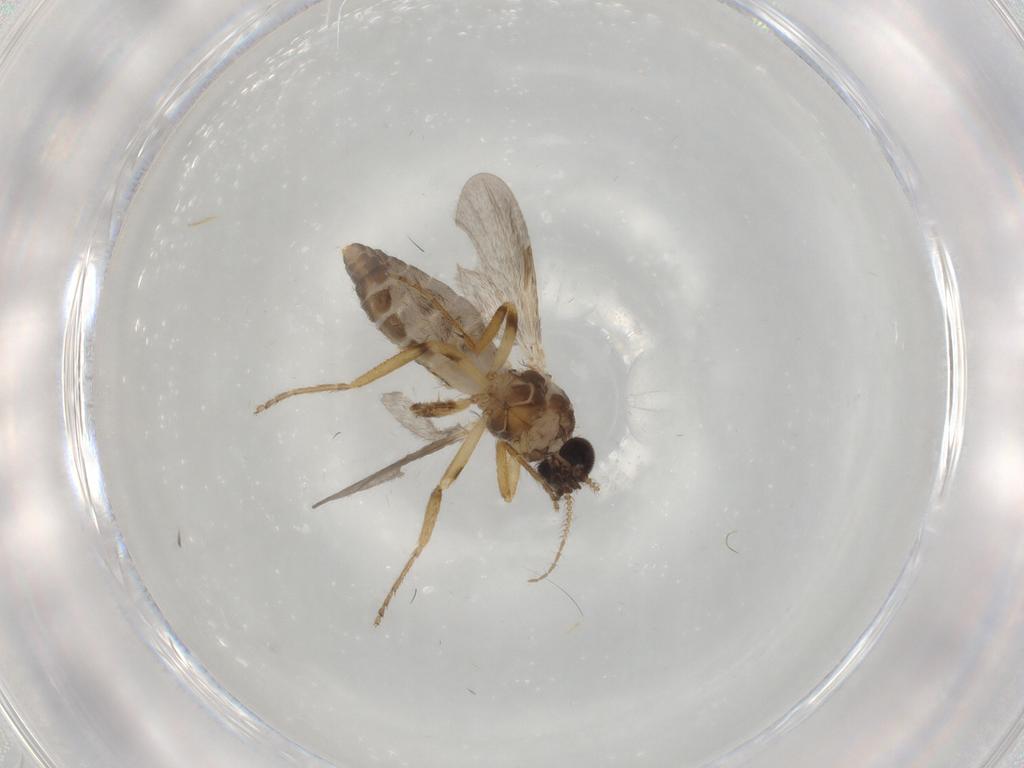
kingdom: Animalia
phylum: Arthropoda
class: Insecta
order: Diptera
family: Ceratopogonidae
